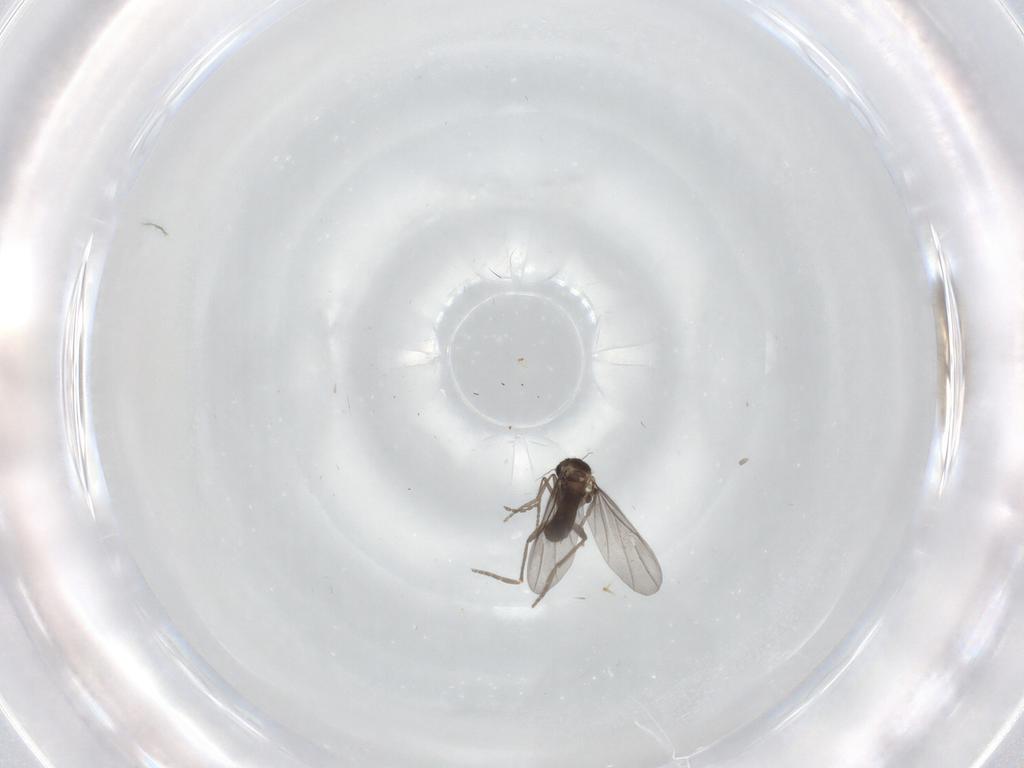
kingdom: Animalia
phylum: Arthropoda
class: Insecta
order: Diptera
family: Phoridae
